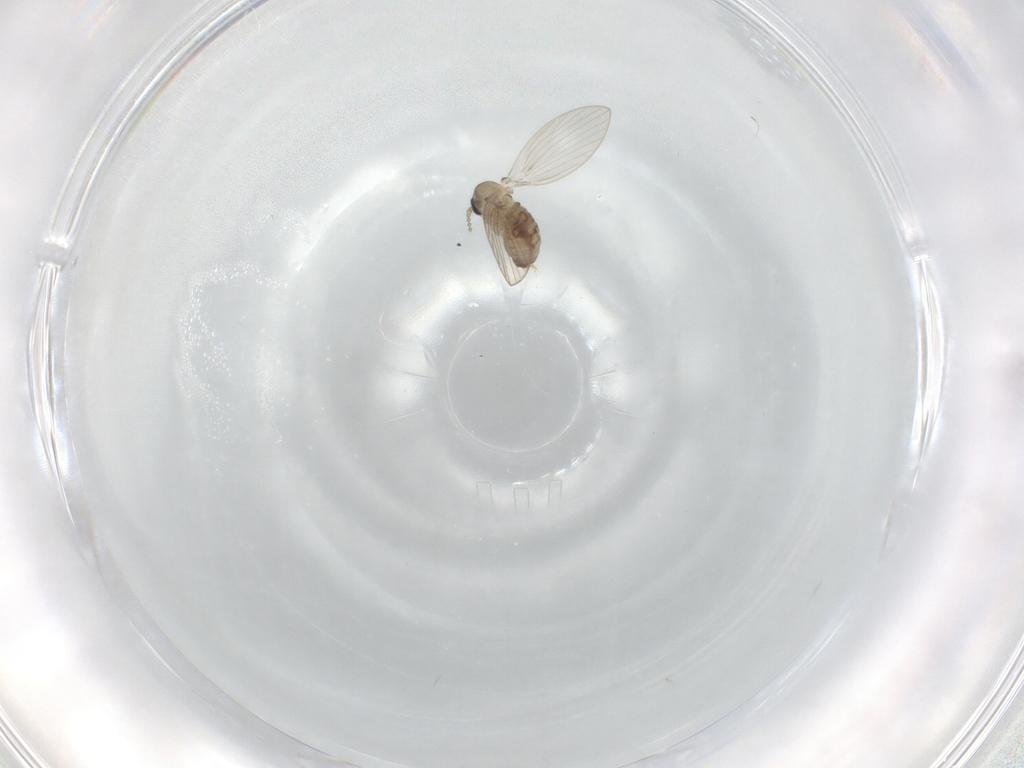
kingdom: Animalia
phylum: Arthropoda
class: Insecta
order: Diptera
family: Psychodidae
